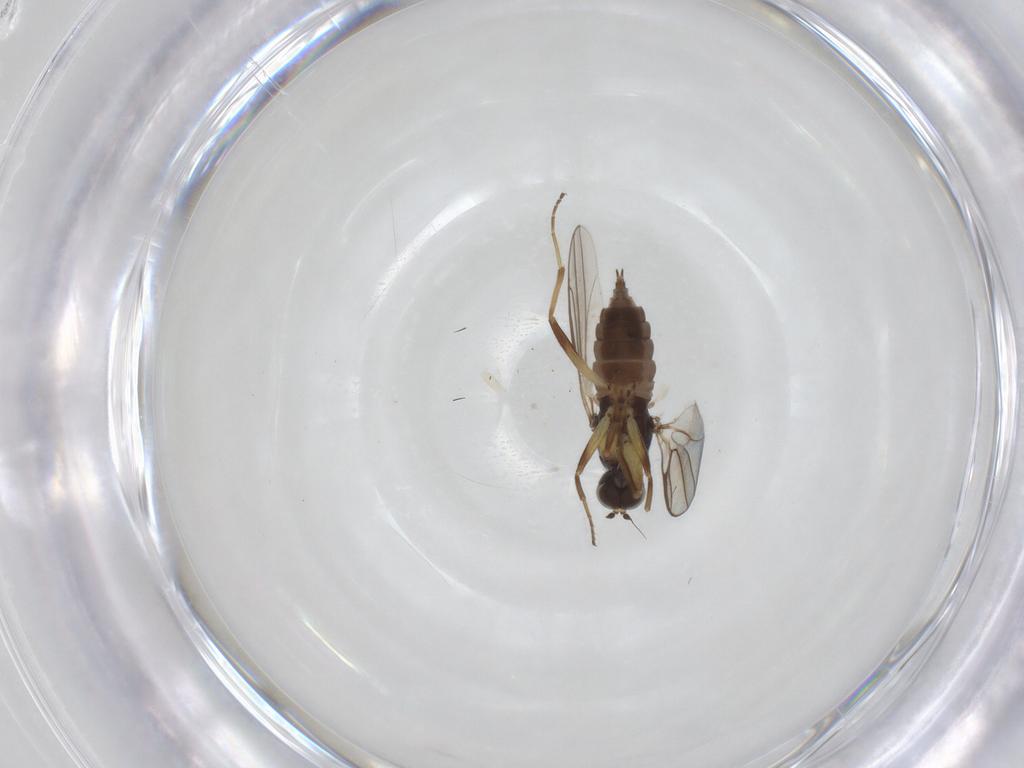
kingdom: Animalia
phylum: Arthropoda
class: Insecta
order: Diptera
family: Hybotidae
